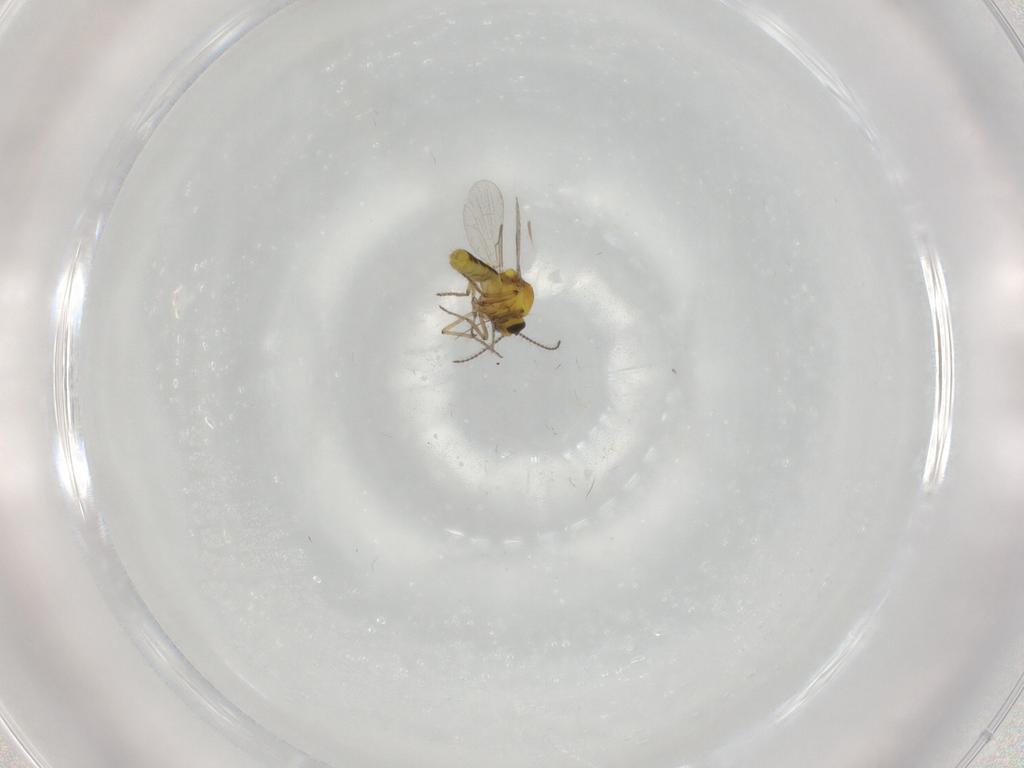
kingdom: Animalia
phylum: Arthropoda
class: Insecta
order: Diptera
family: Ceratopogonidae
